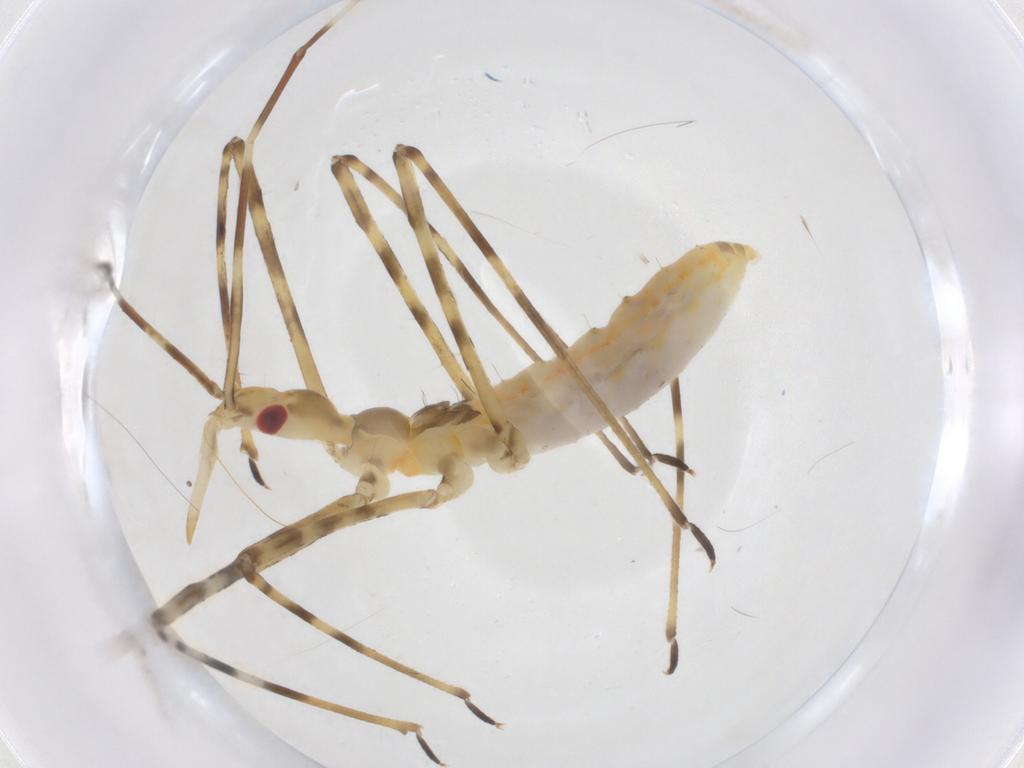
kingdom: Animalia
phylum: Arthropoda
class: Insecta
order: Hemiptera
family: Reduviidae
